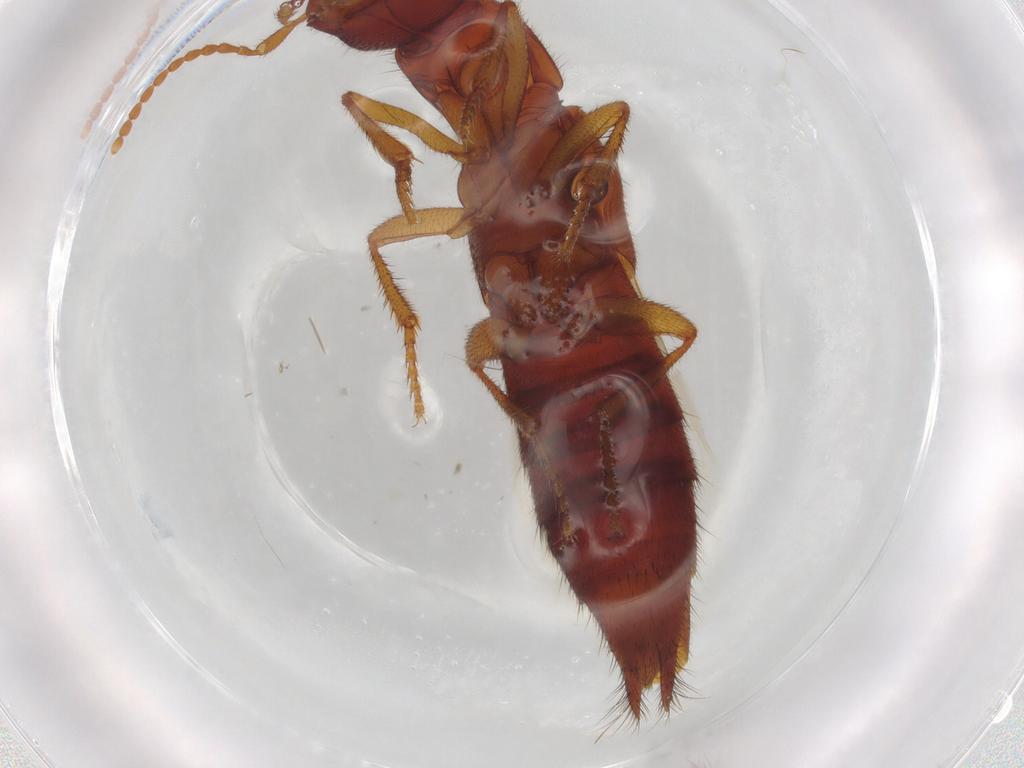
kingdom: Animalia
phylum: Arthropoda
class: Insecta
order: Coleoptera
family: Staphylinidae
